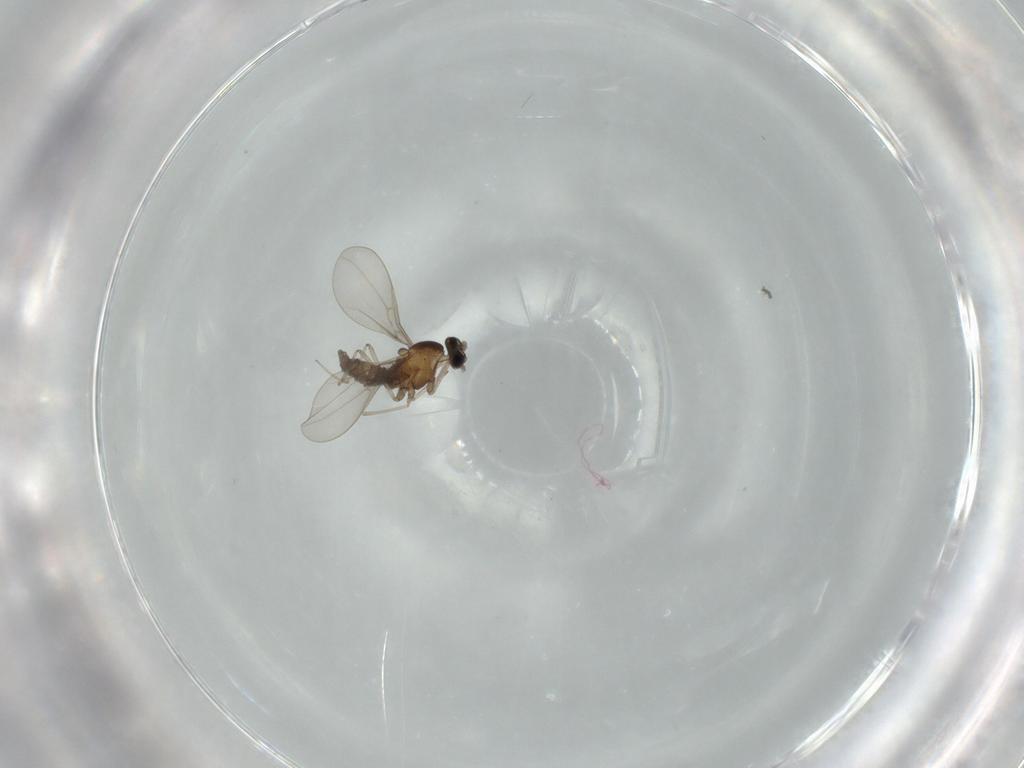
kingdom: Animalia
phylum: Arthropoda
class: Insecta
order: Diptera
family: Cecidomyiidae
